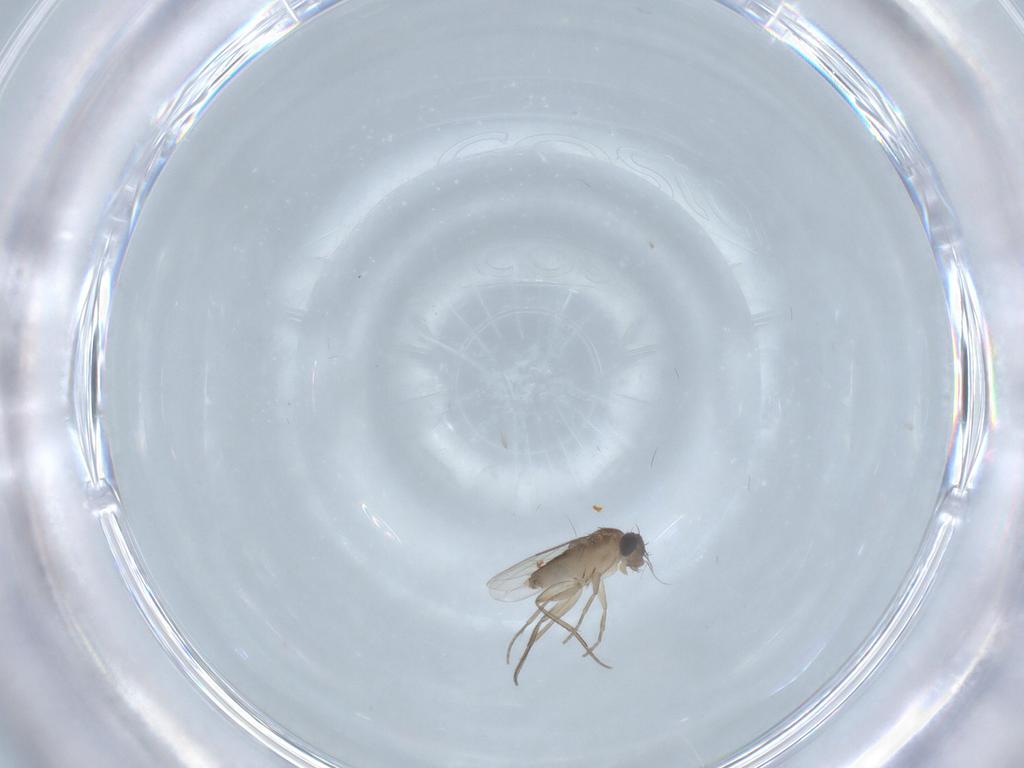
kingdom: Animalia
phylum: Arthropoda
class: Insecta
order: Diptera
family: Phoridae
